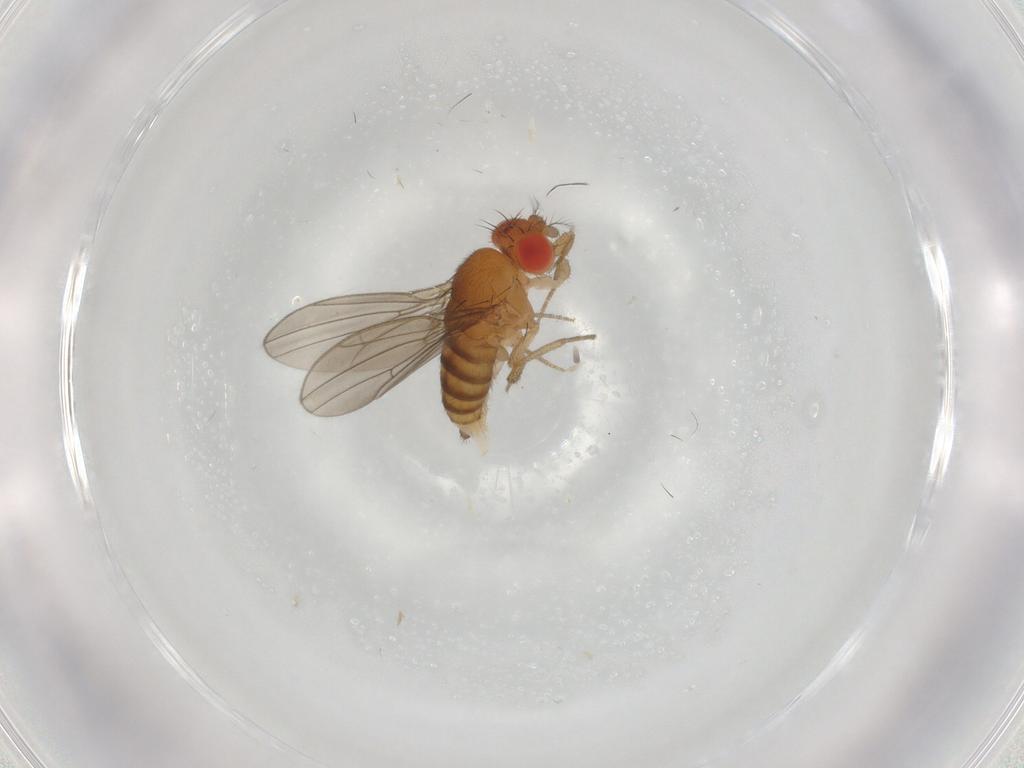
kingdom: Animalia
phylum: Arthropoda
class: Insecta
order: Diptera
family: Drosophilidae
